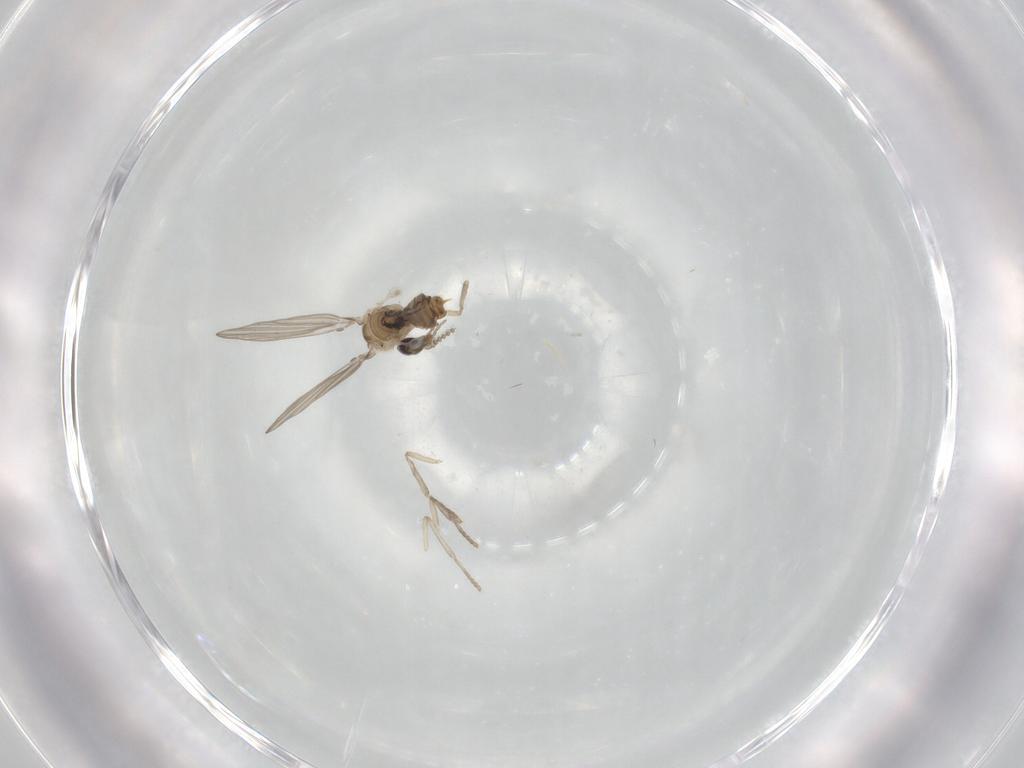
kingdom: Animalia
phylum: Arthropoda
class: Insecta
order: Diptera
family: Psychodidae
